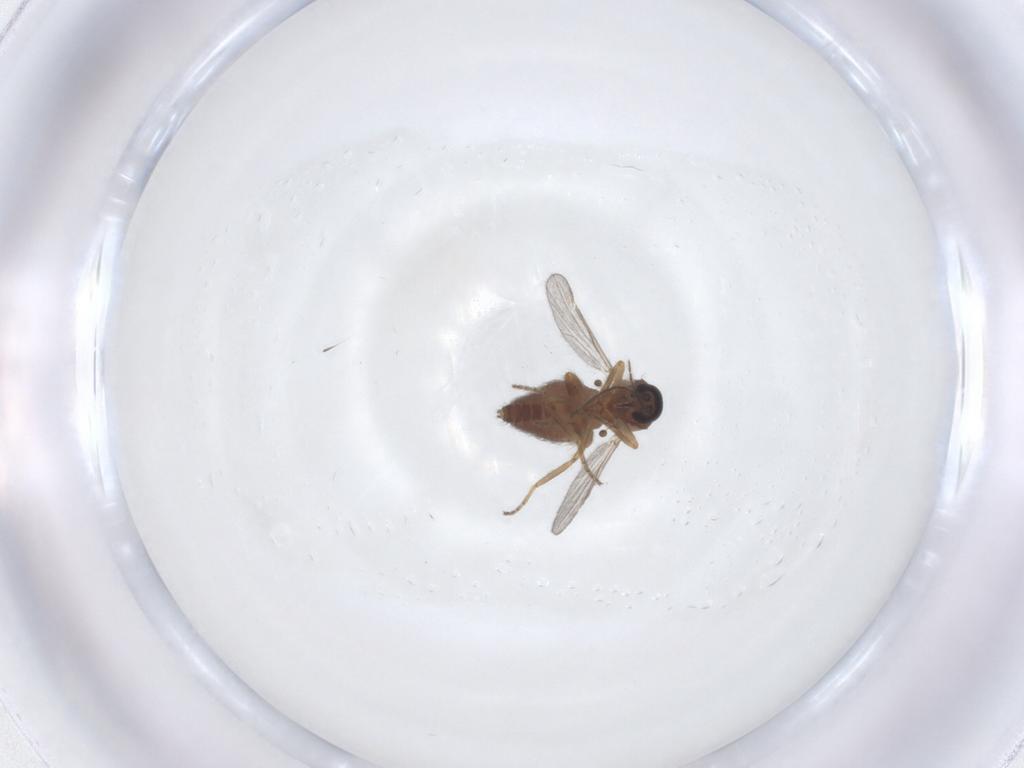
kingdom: Animalia
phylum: Arthropoda
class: Insecta
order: Diptera
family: Ceratopogonidae
